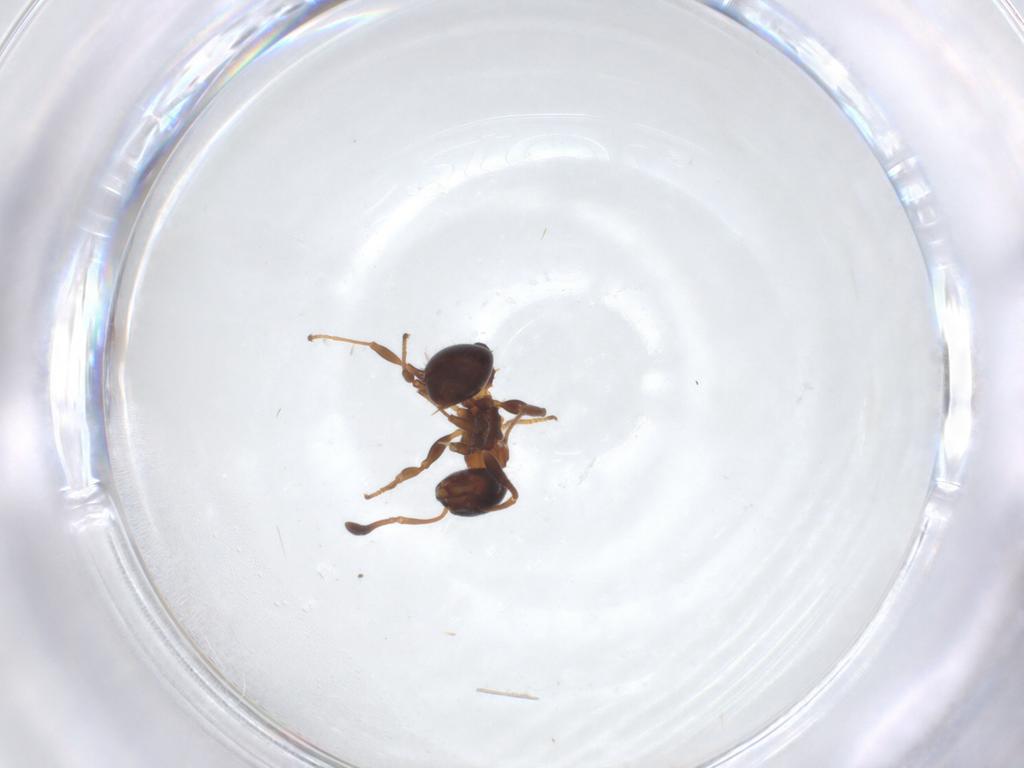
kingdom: Animalia
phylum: Arthropoda
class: Insecta
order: Hymenoptera
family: Formicidae
